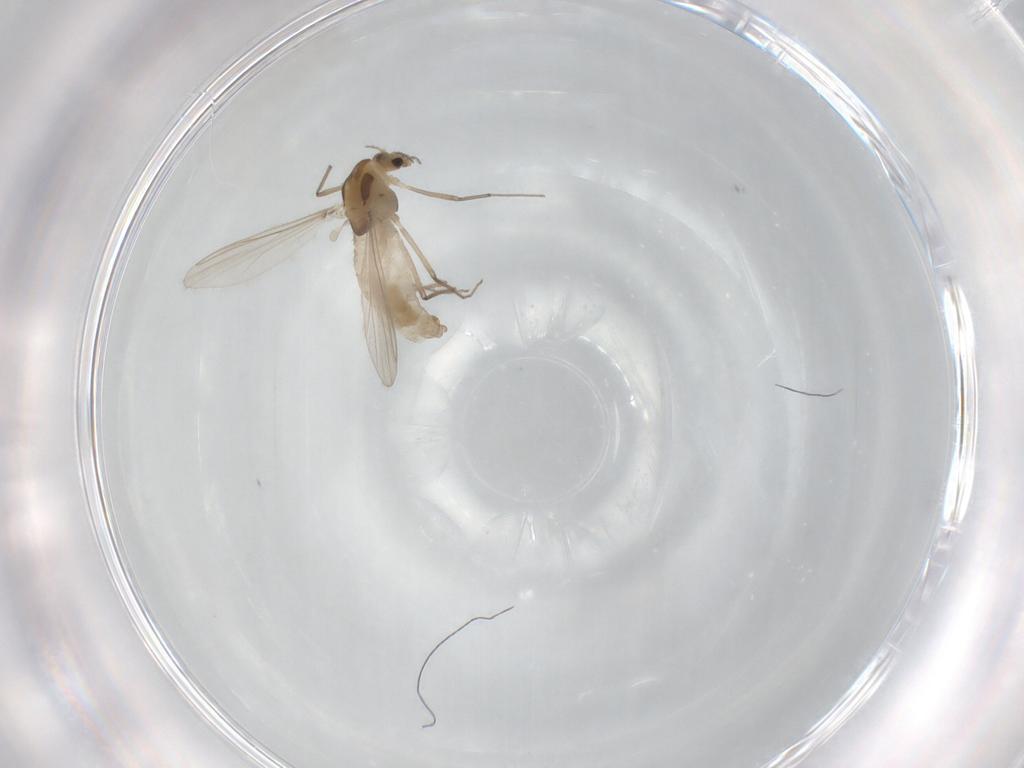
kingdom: Animalia
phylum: Arthropoda
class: Insecta
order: Diptera
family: Chironomidae
